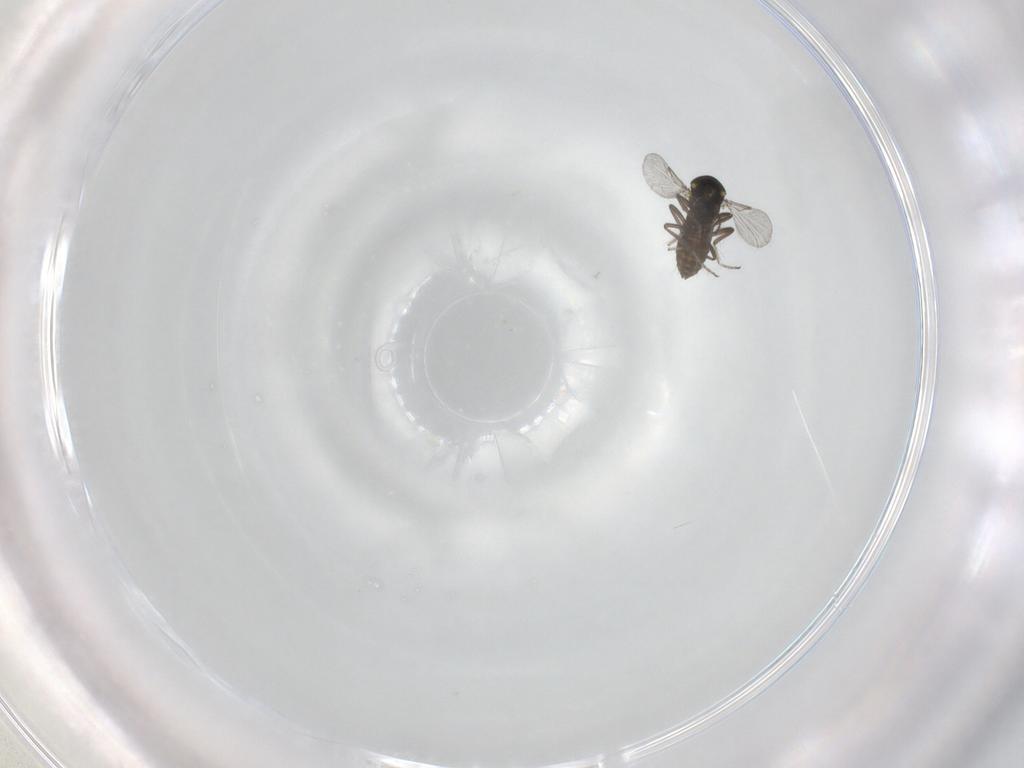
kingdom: Animalia
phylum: Arthropoda
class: Insecta
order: Diptera
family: Ceratopogonidae
